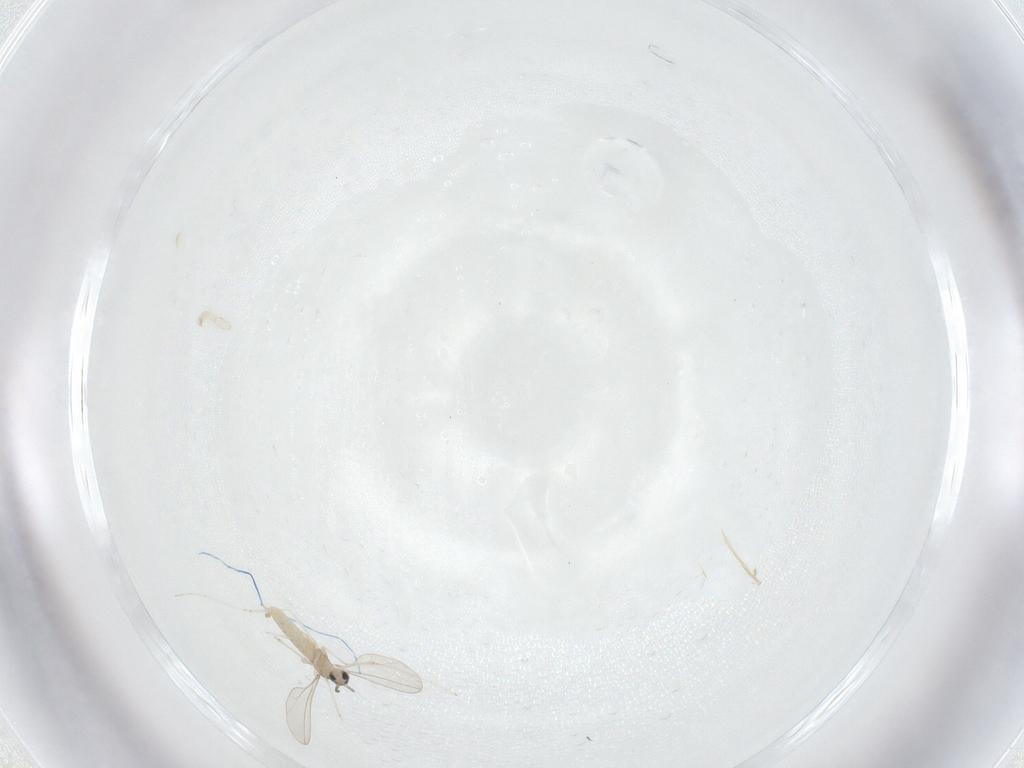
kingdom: Animalia
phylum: Arthropoda
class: Insecta
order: Diptera
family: Sciaridae
